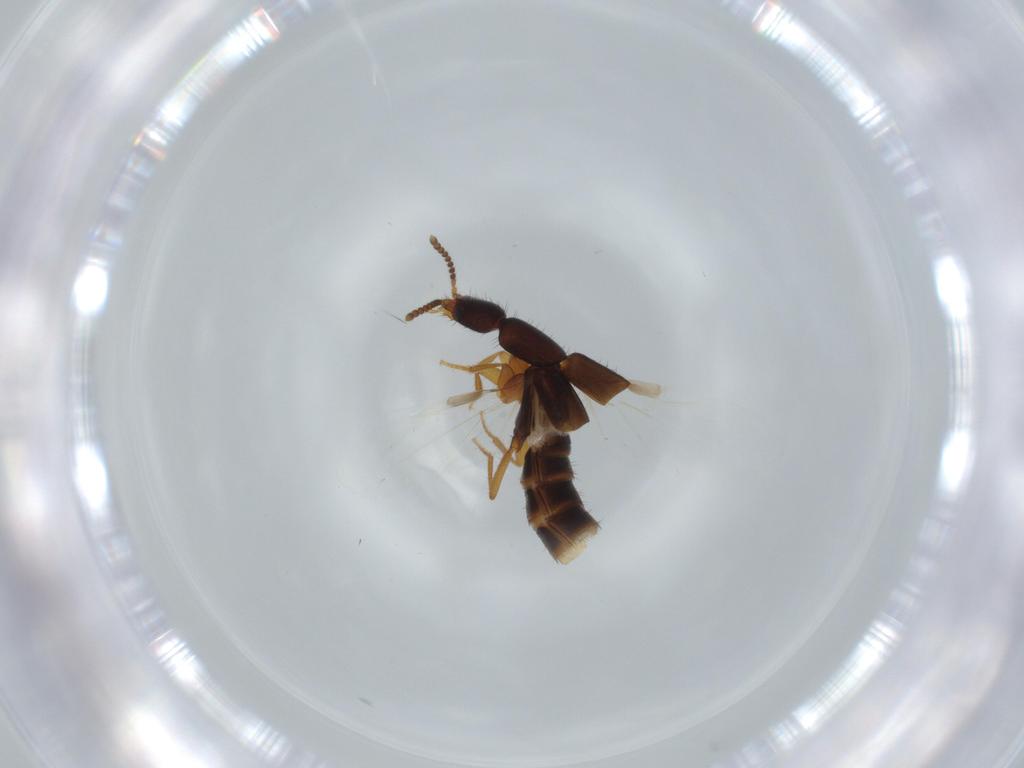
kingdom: Animalia
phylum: Arthropoda
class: Insecta
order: Coleoptera
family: Staphylinidae
